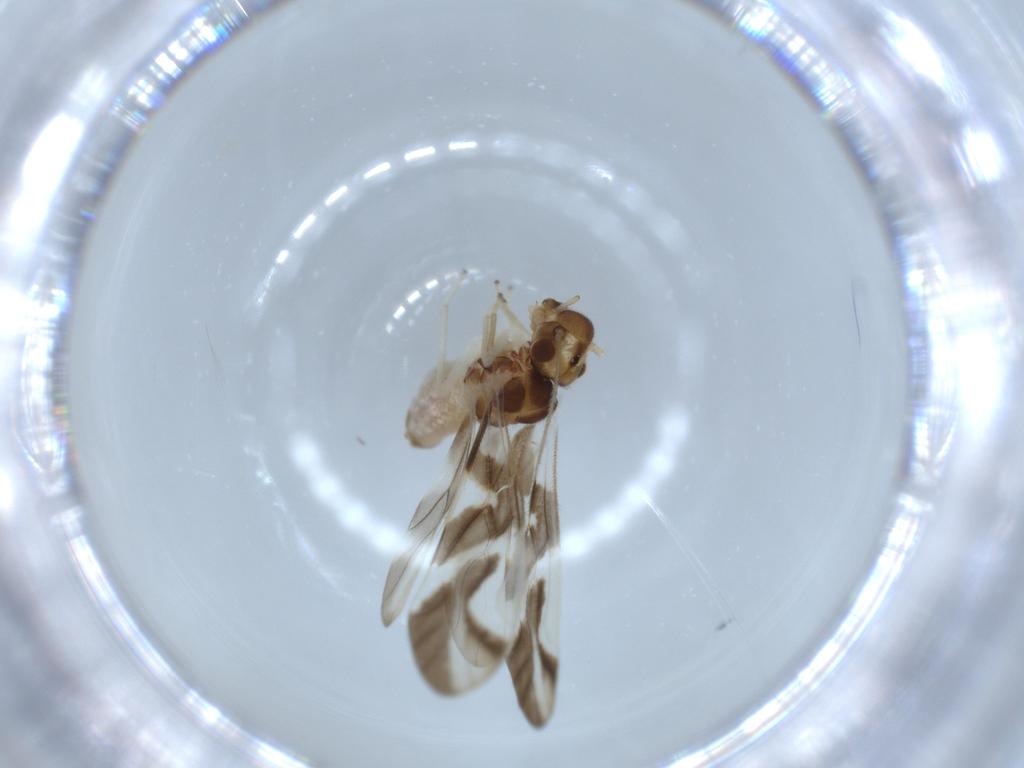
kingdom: Animalia
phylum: Arthropoda
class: Insecta
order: Psocodea
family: Caeciliusidae
